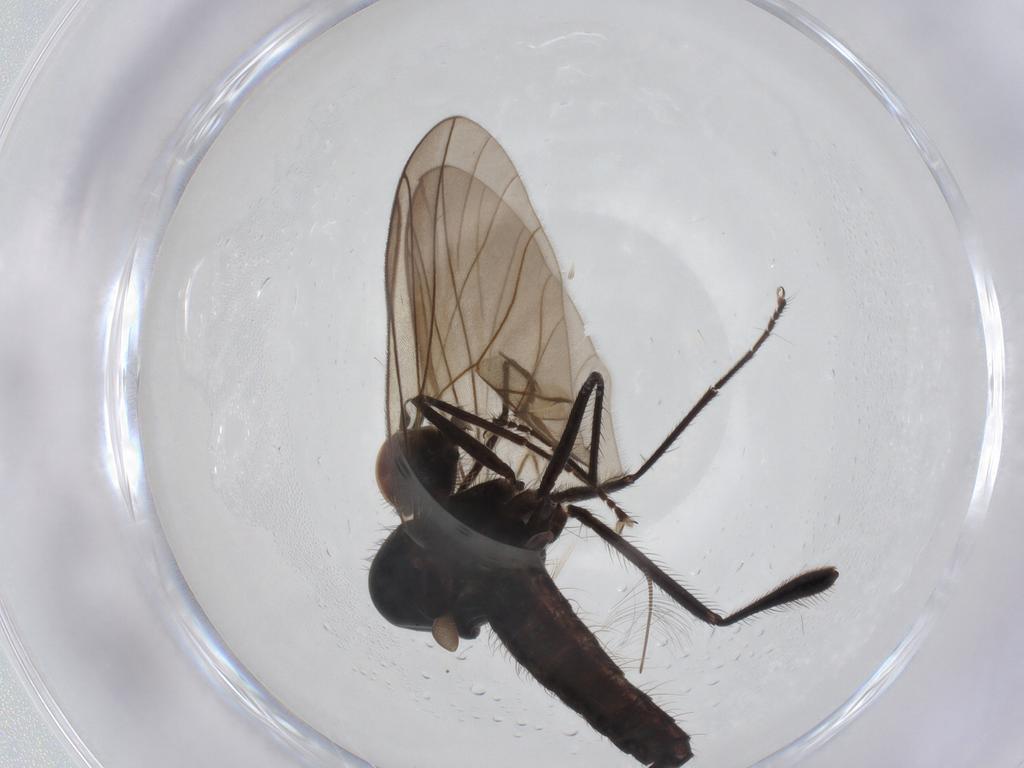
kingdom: Animalia
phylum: Arthropoda
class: Insecta
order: Diptera
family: Hybotidae
